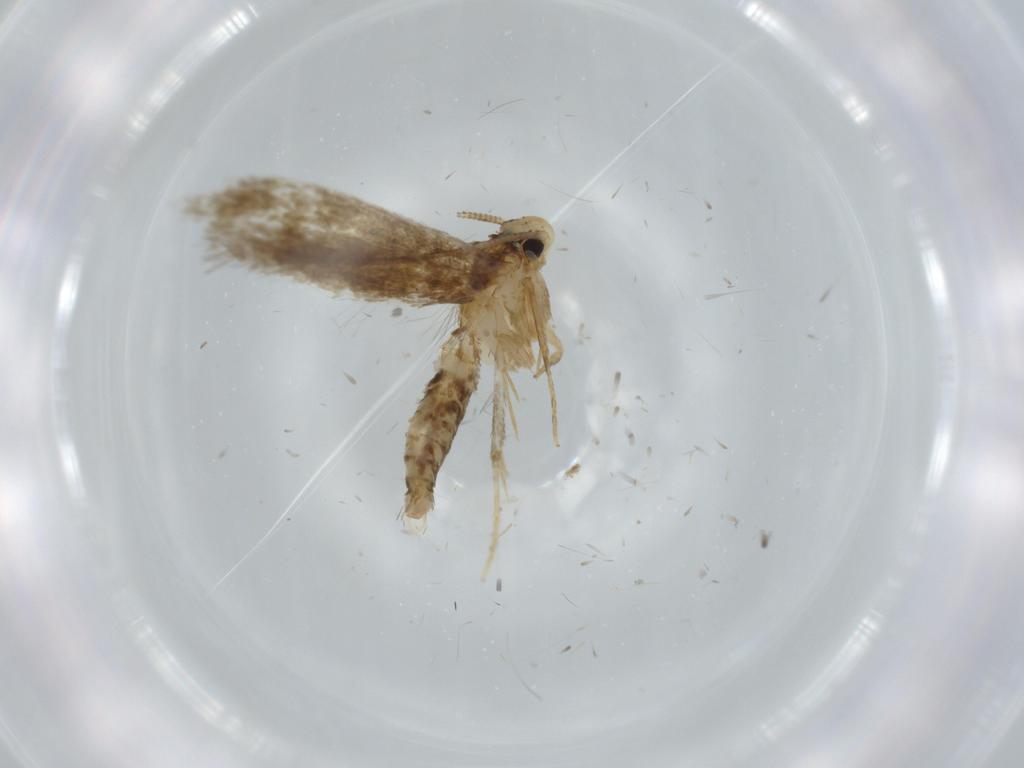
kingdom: Animalia
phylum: Arthropoda
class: Insecta
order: Lepidoptera
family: Tineidae
